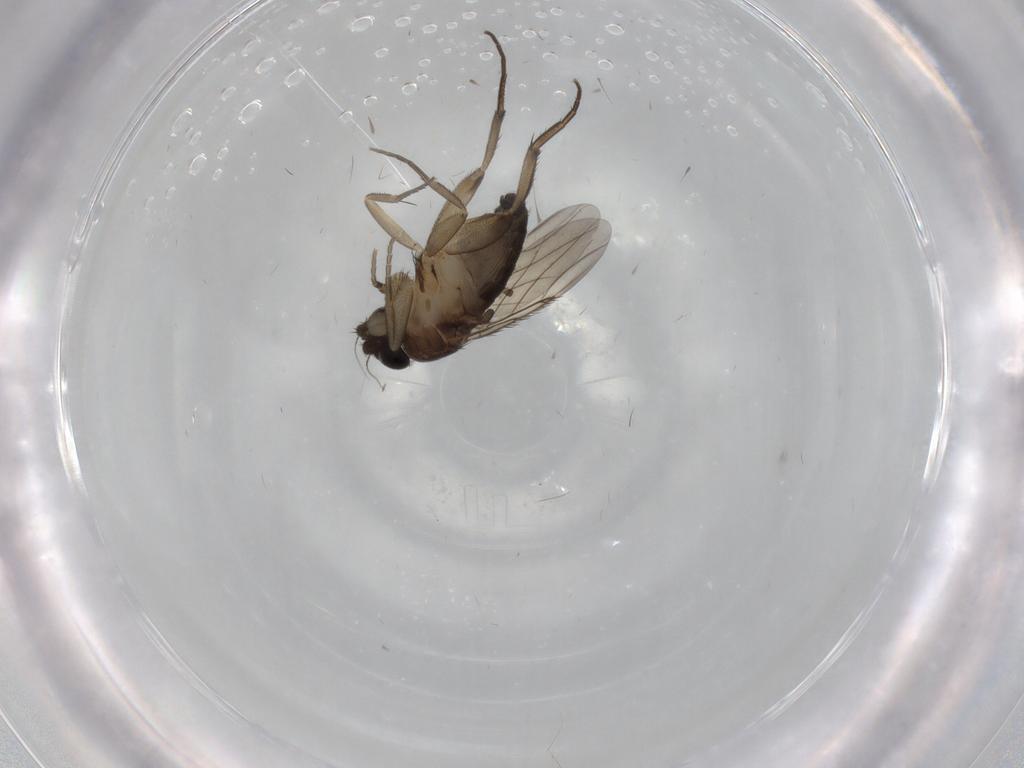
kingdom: Animalia
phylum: Arthropoda
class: Insecta
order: Diptera
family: Phoridae
